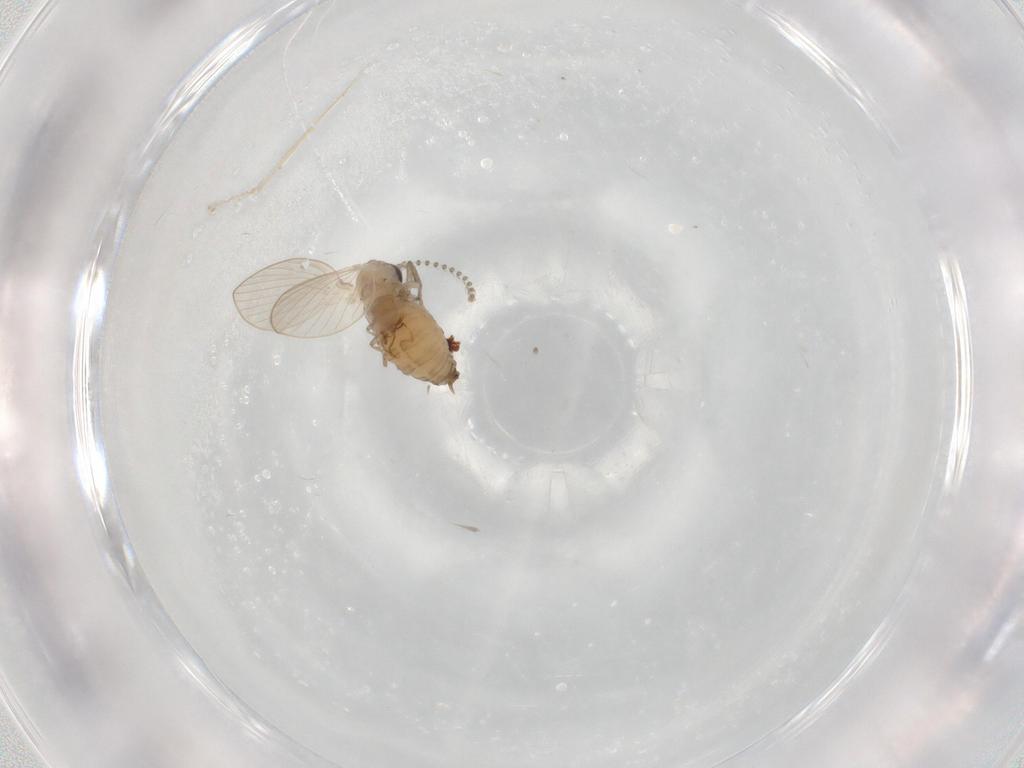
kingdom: Animalia
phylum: Arthropoda
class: Insecta
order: Diptera
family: Psychodidae
